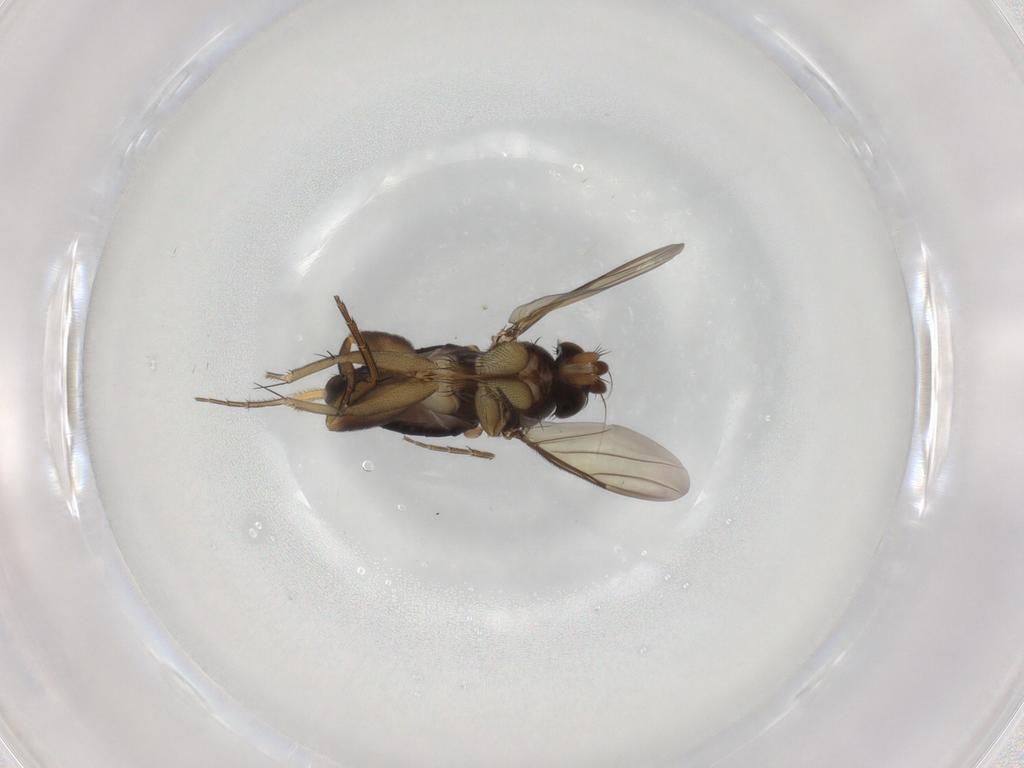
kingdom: Animalia
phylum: Arthropoda
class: Insecta
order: Diptera
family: Phoridae
